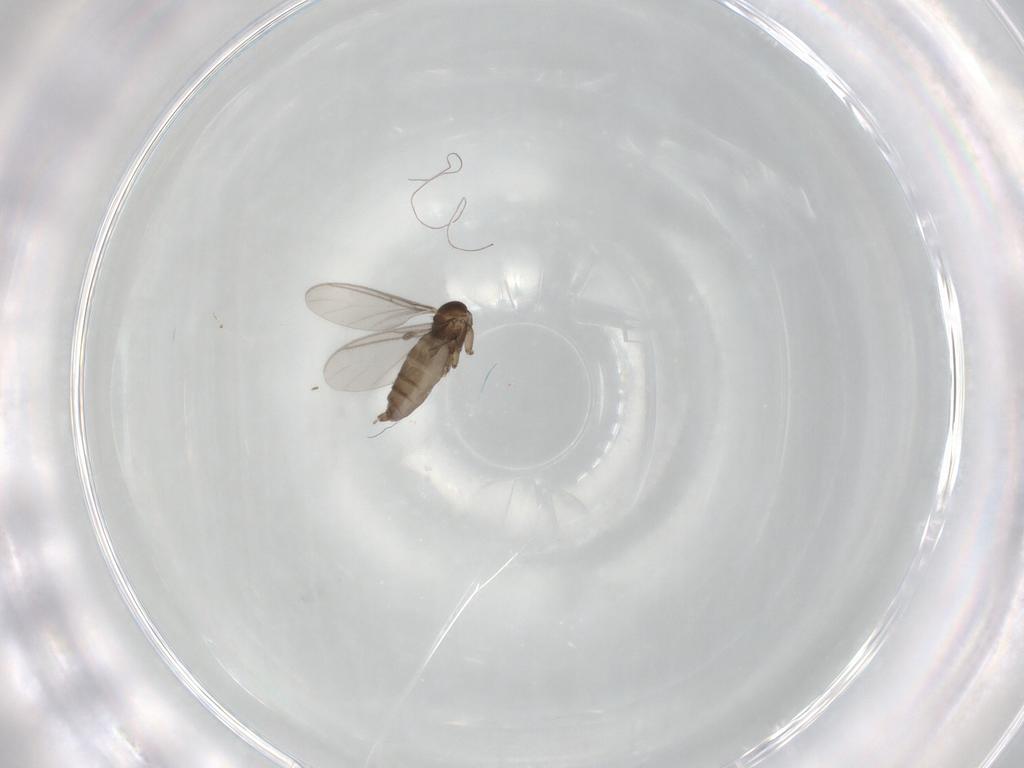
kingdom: Animalia
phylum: Arthropoda
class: Insecta
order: Diptera
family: Sciaridae
